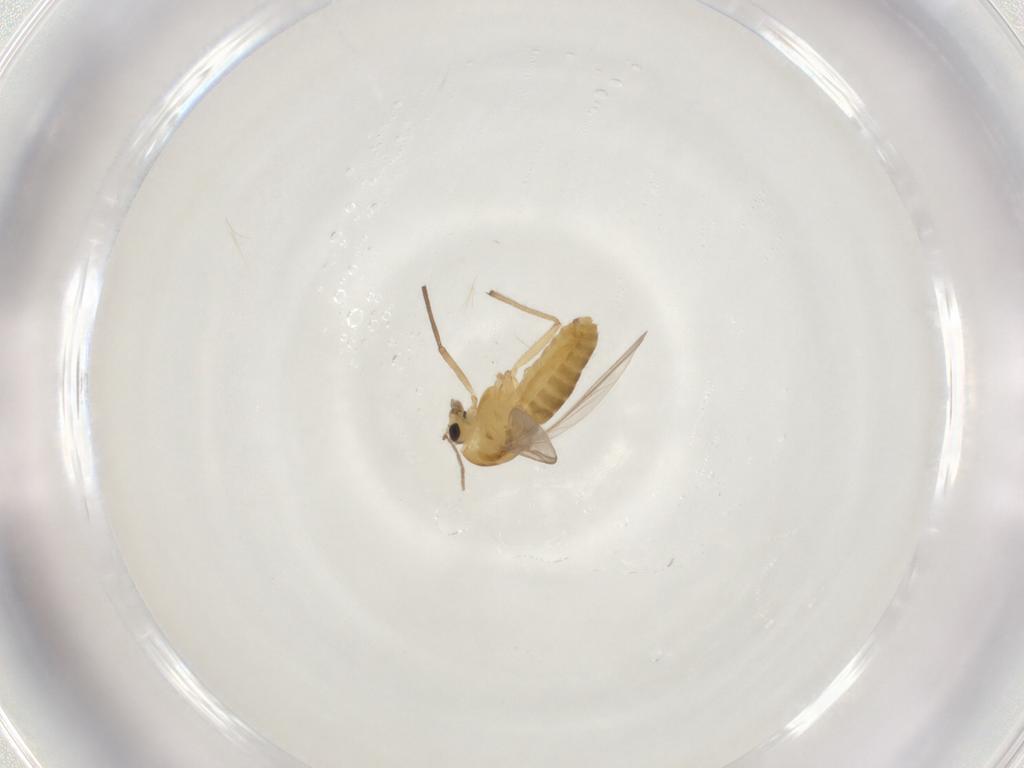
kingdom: Animalia
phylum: Arthropoda
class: Insecta
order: Diptera
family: Chironomidae
